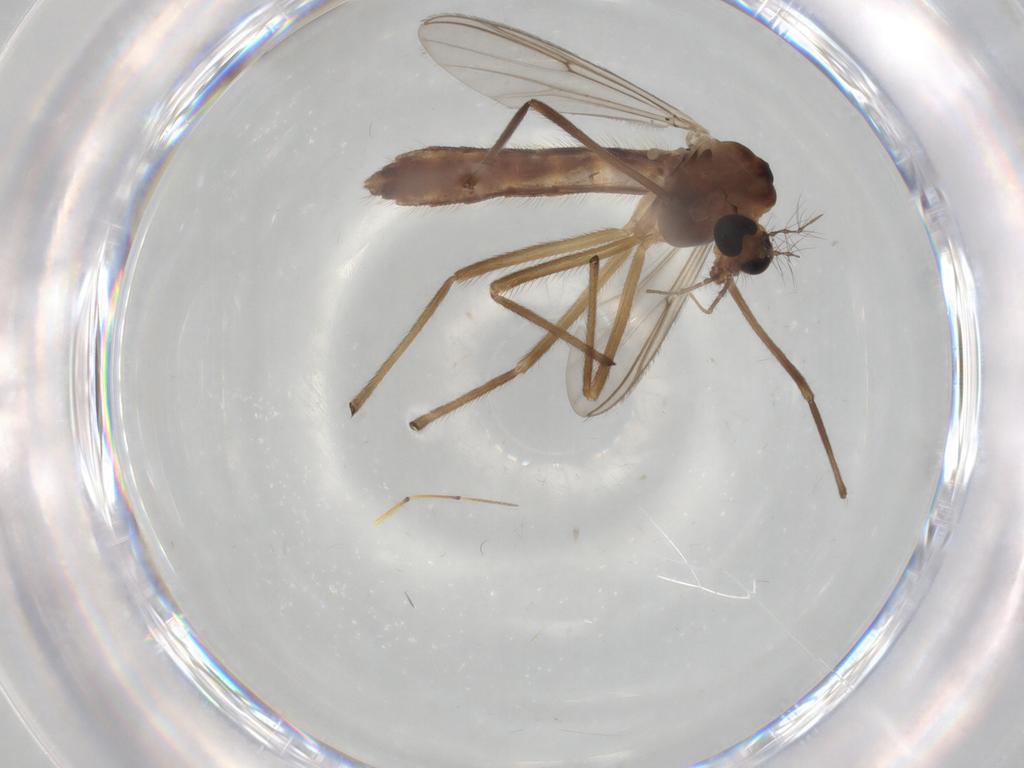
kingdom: Animalia
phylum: Arthropoda
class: Insecta
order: Diptera
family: Chironomidae
